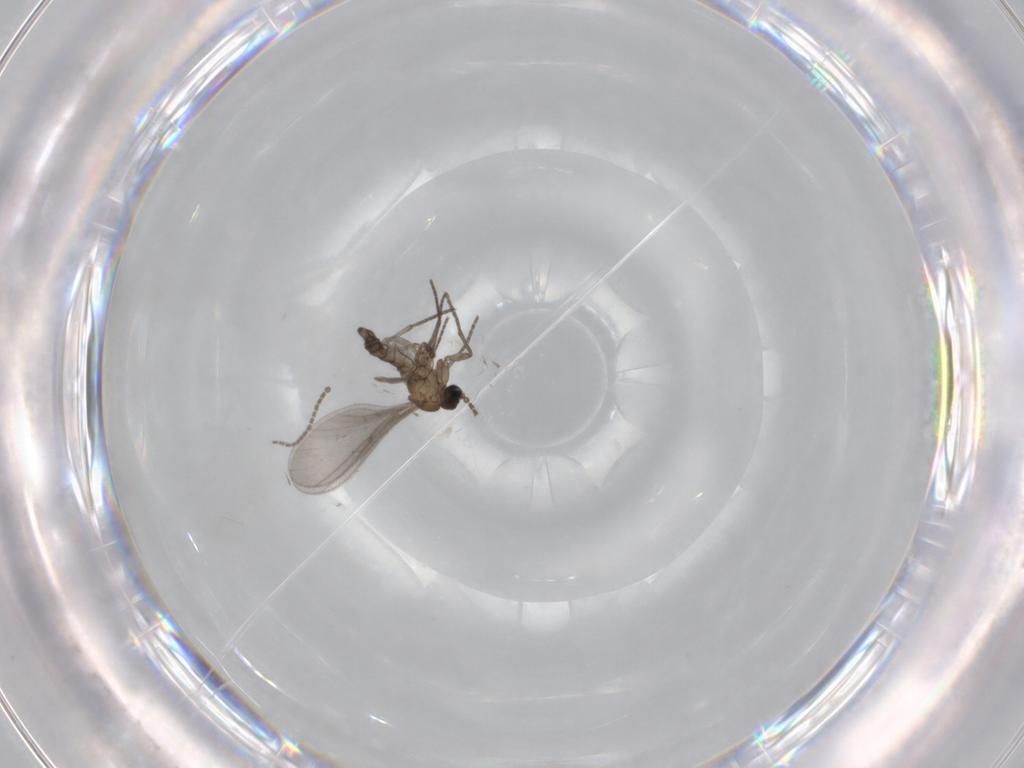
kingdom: Animalia
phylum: Arthropoda
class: Insecta
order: Diptera
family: Sciaridae
